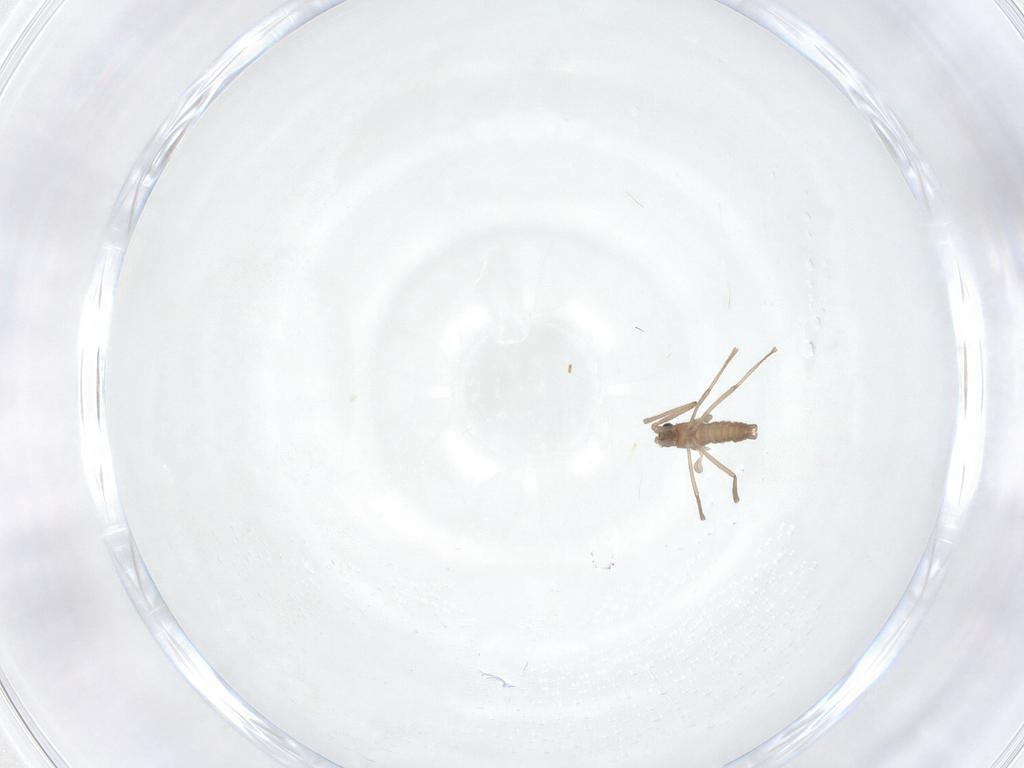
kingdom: Animalia
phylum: Arthropoda
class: Insecta
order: Diptera
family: Cecidomyiidae
